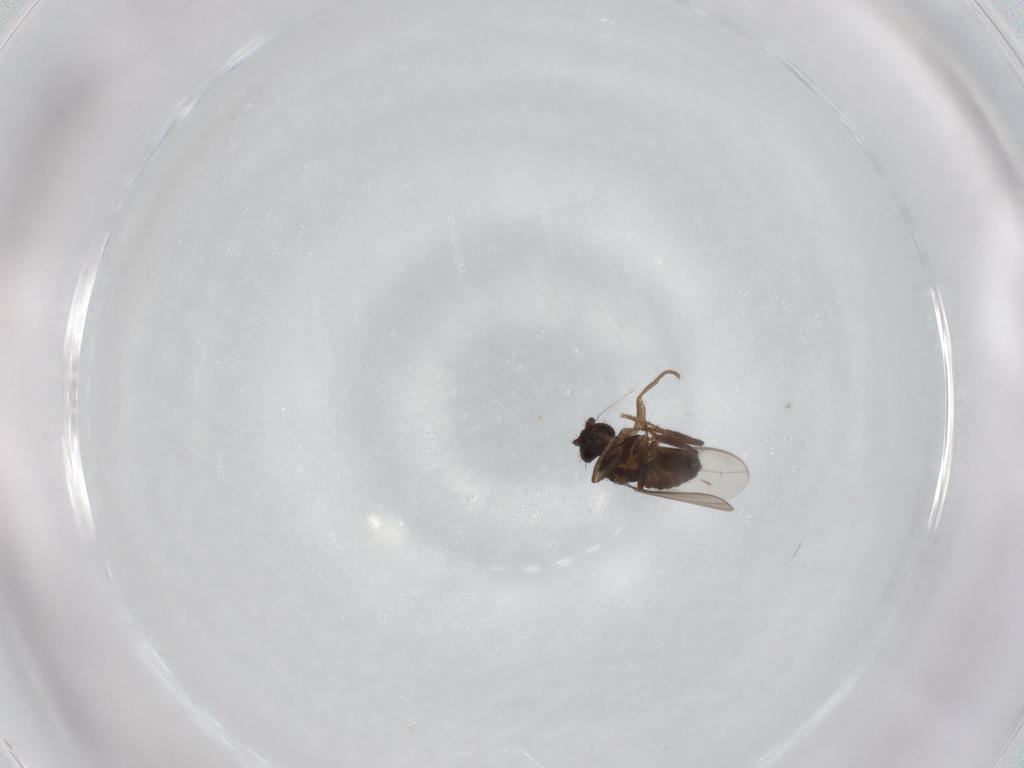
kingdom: Animalia
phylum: Arthropoda
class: Insecta
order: Diptera
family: Sphaeroceridae
